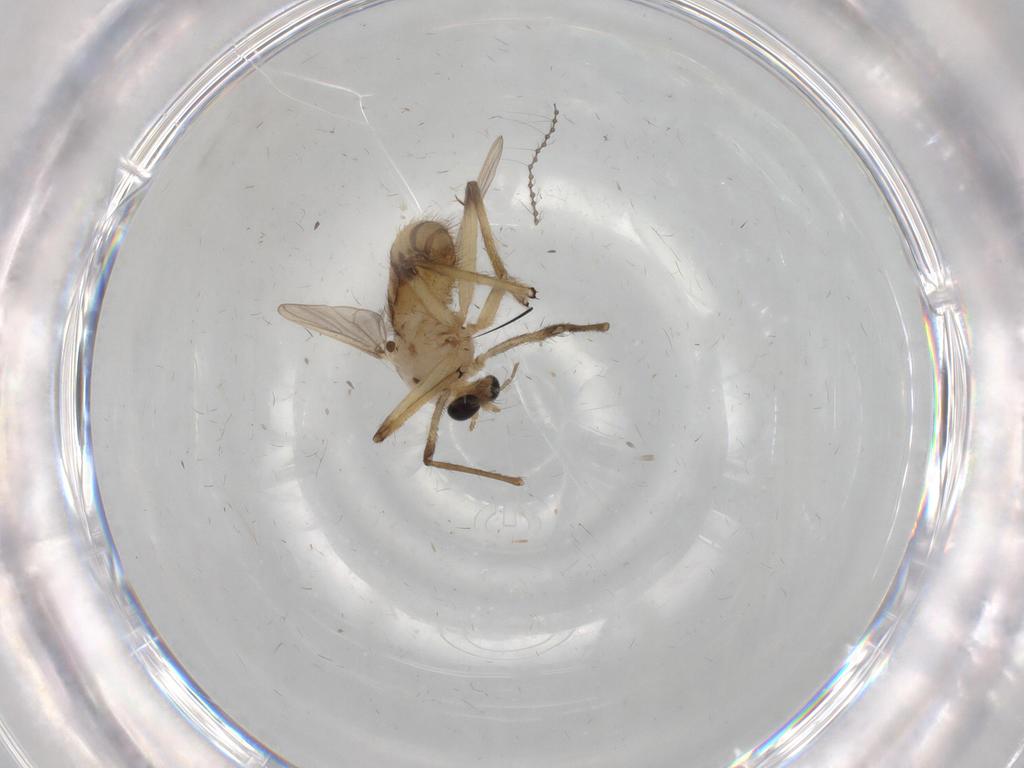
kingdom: Animalia
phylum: Arthropoda
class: Insecta
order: Diptera
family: Chironomidae
